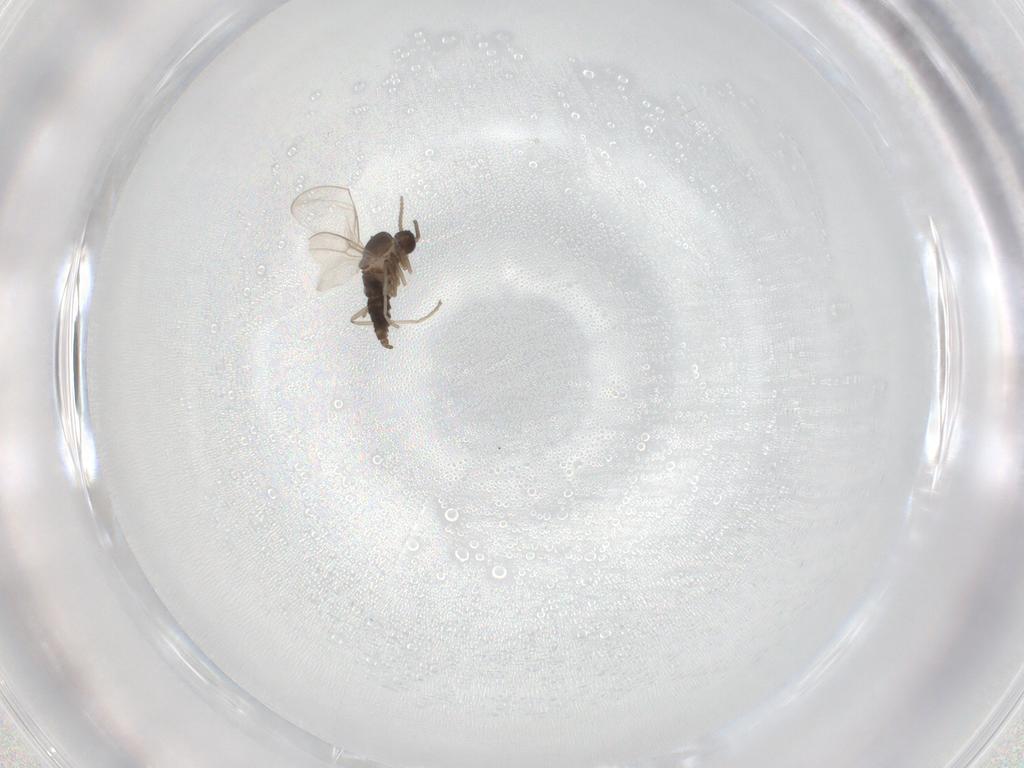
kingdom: Animalia
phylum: Arthropoda
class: Insecta
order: Diptera
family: Cecidomyiidae
